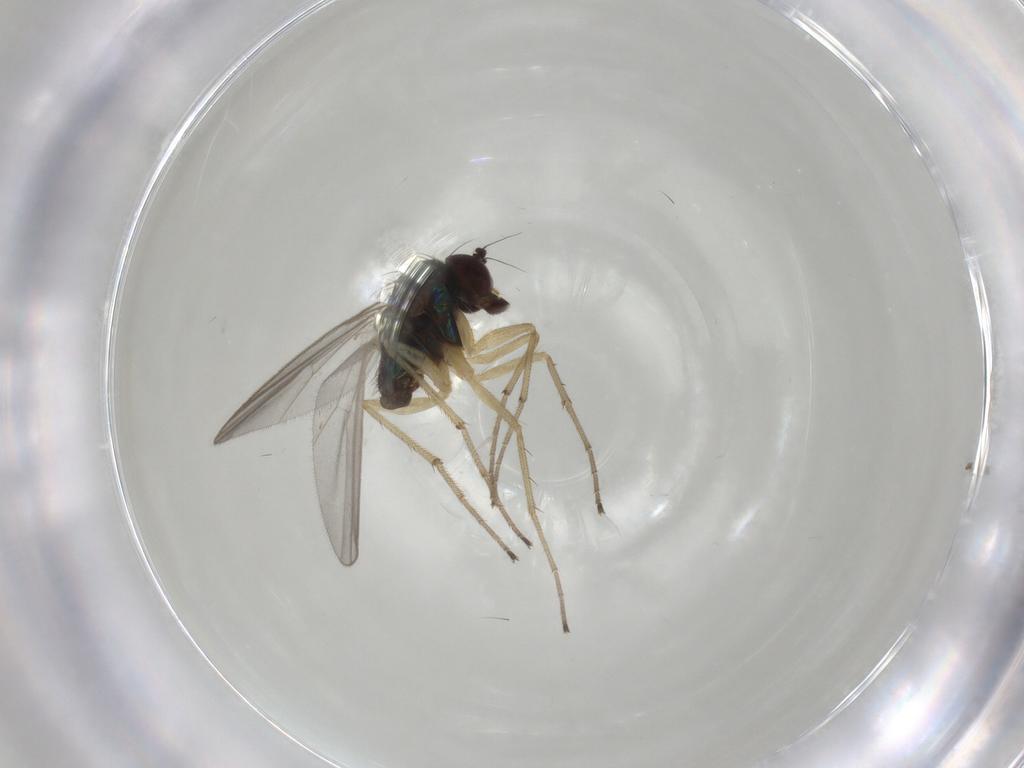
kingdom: Animalia
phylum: Arthropoda
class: Insecta
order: Diptera
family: Dolichopodidae
